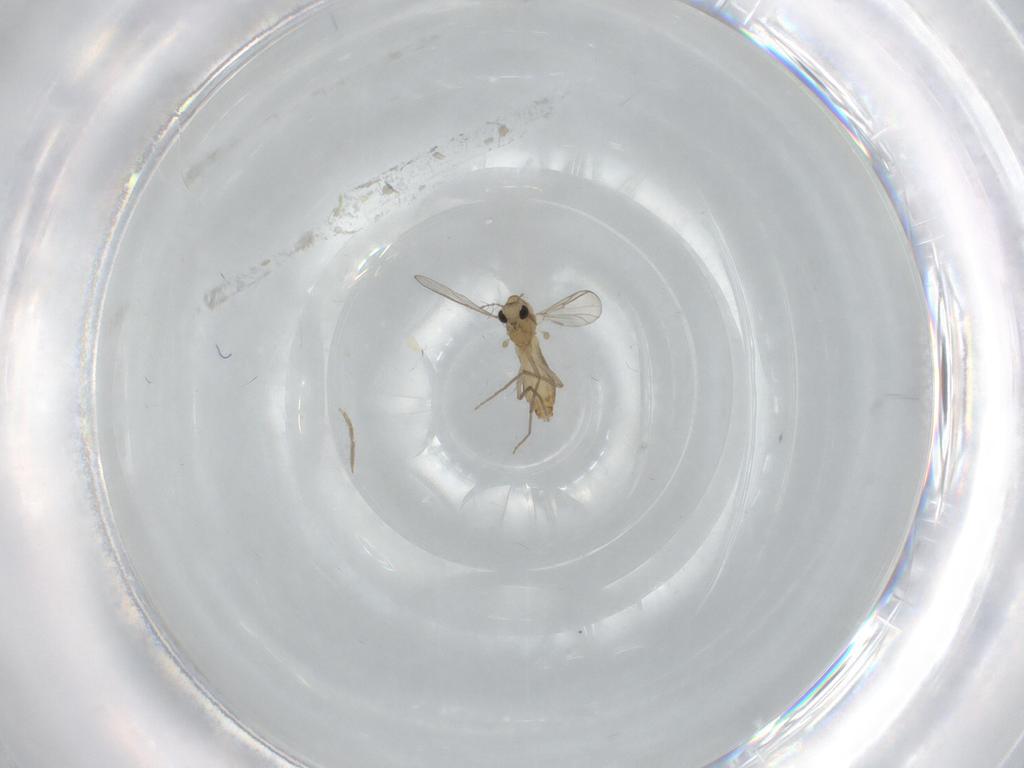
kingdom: Animalia
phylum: Arthropoda
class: Insecta
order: Diptera
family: Chironomidae
